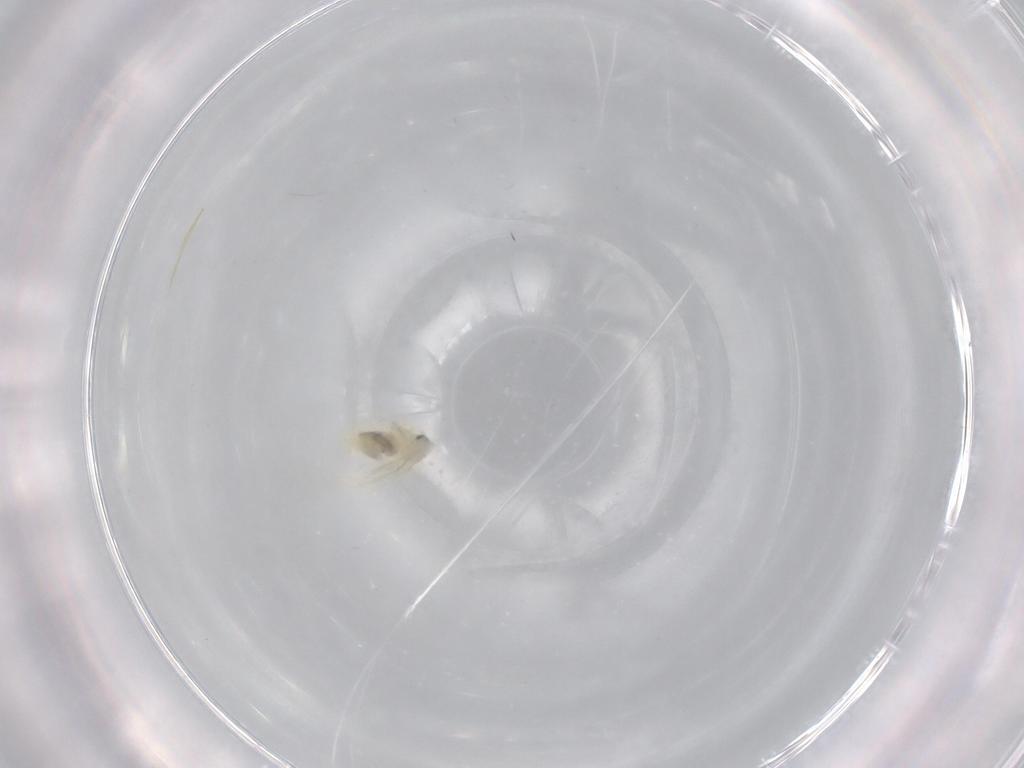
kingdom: Animalia
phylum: Arthropoda
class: Insecta
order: Hemiptera
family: Aleyrodidae
